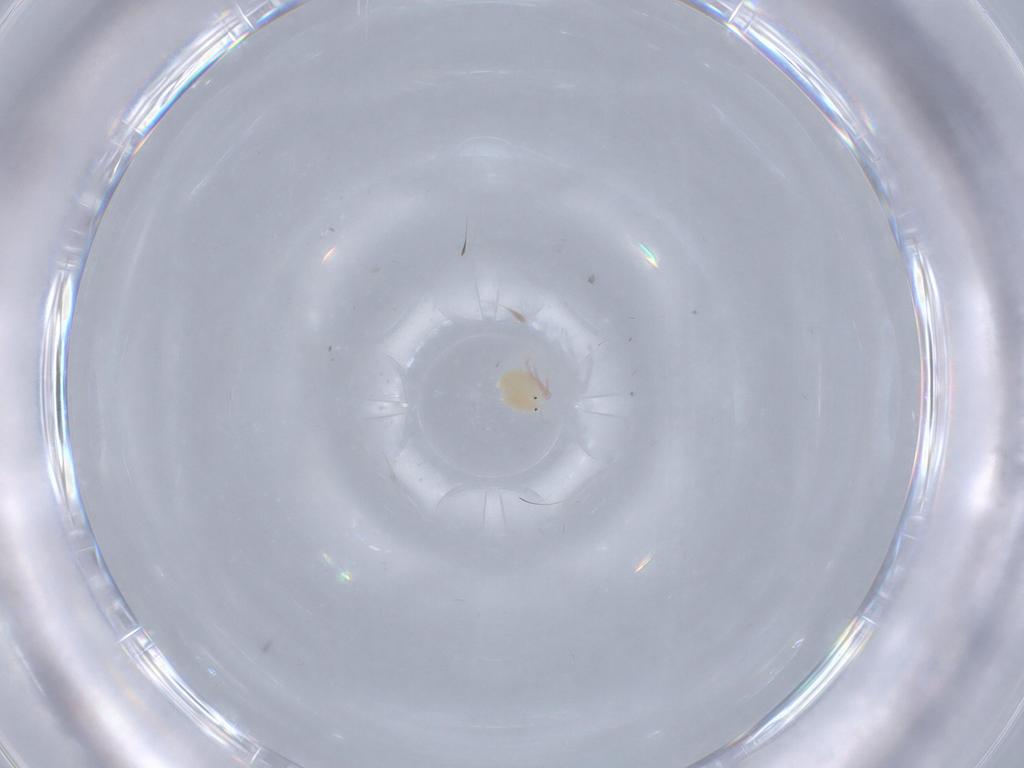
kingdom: Animalia
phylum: Arthropoda
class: Arachnida
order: Trombidiformes
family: Lebertiidae
